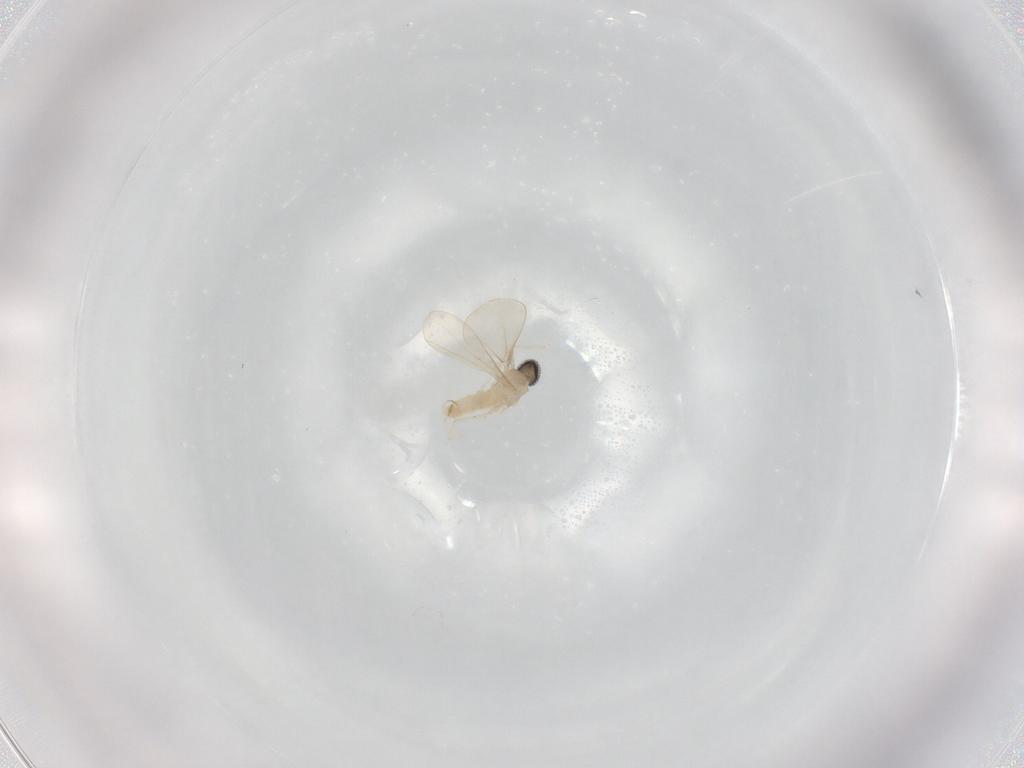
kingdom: Animalia
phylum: Arthropoda
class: Insecta
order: Diptera
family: Cecidomyiidae
